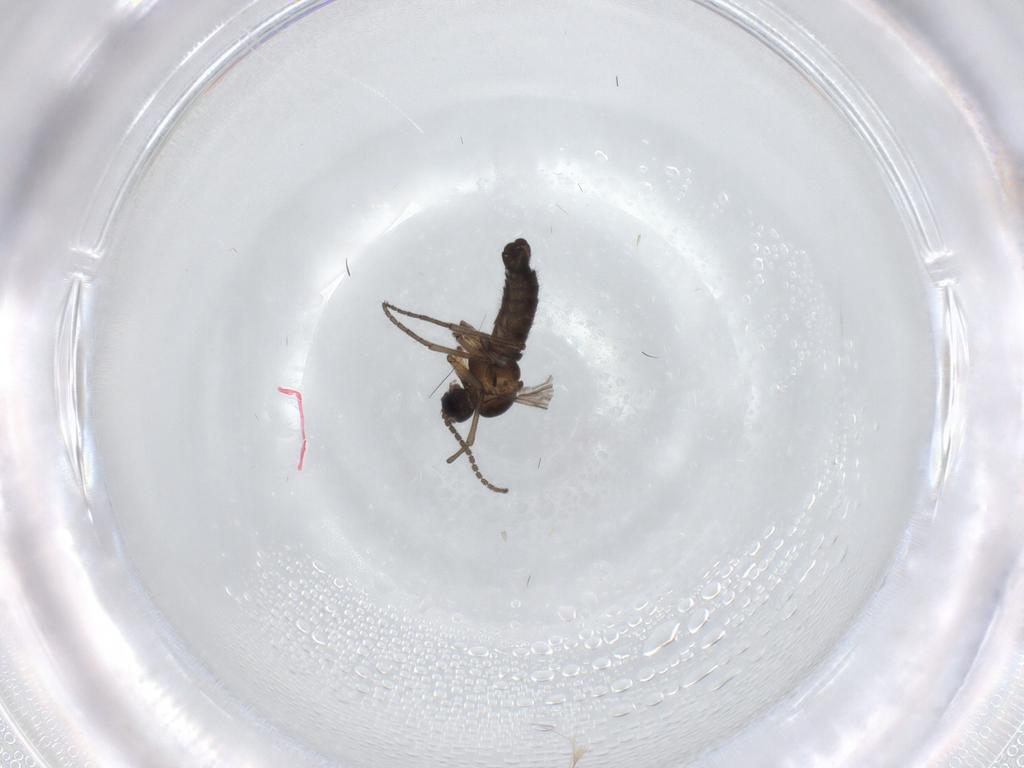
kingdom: Animalia
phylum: Arthropoda
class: Insecta
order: Diptera
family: Sciaridae
